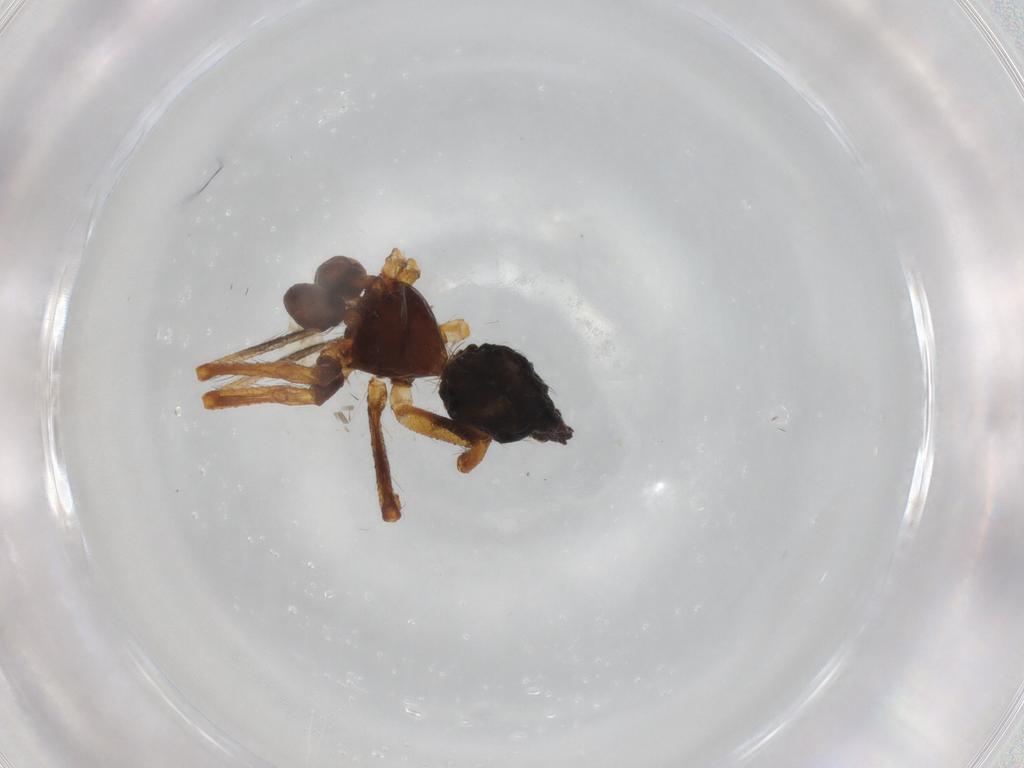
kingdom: Animalia
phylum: Arthropoda
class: Arachnida
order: Araneae
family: Theridiidae
